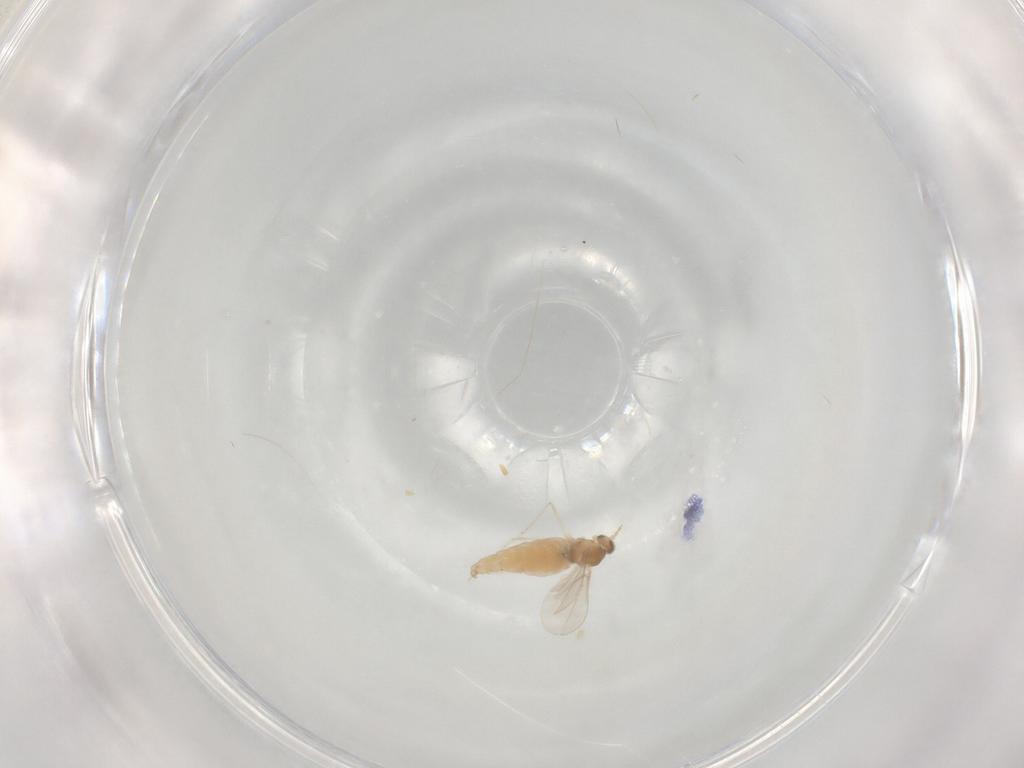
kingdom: Animalia
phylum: Arthropoda
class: Insecta
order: Diptera
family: Cecidomyiidae
